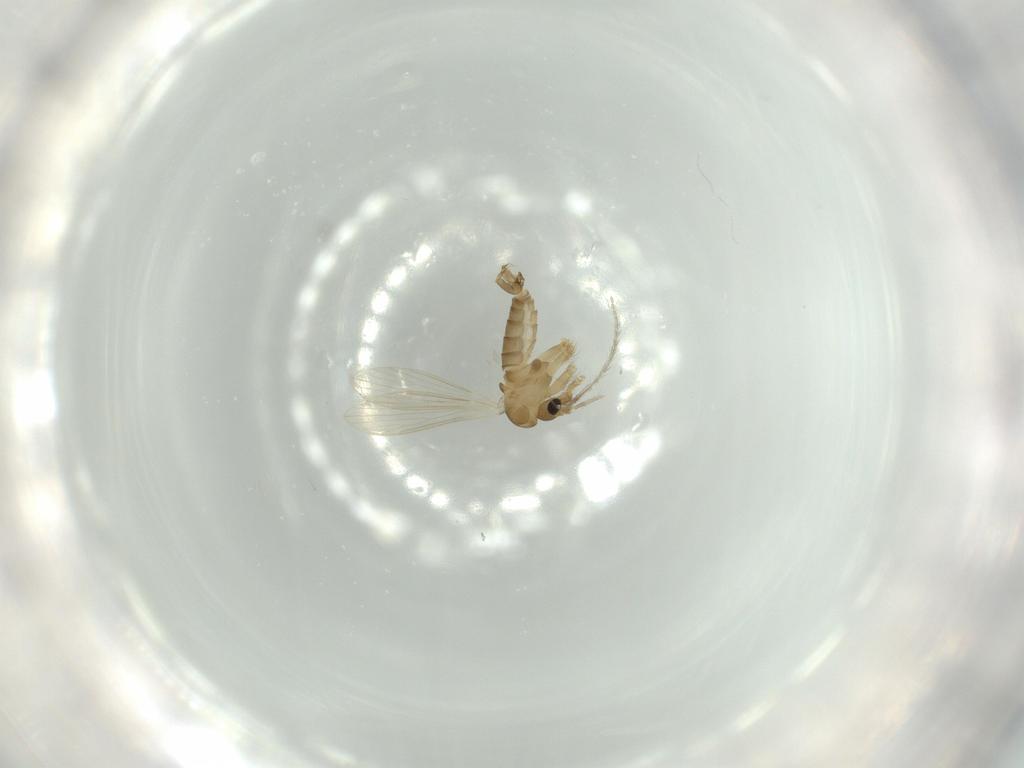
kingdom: Animalia
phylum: Arthropoda
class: Insecta
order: Diptera
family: Psychodidae
